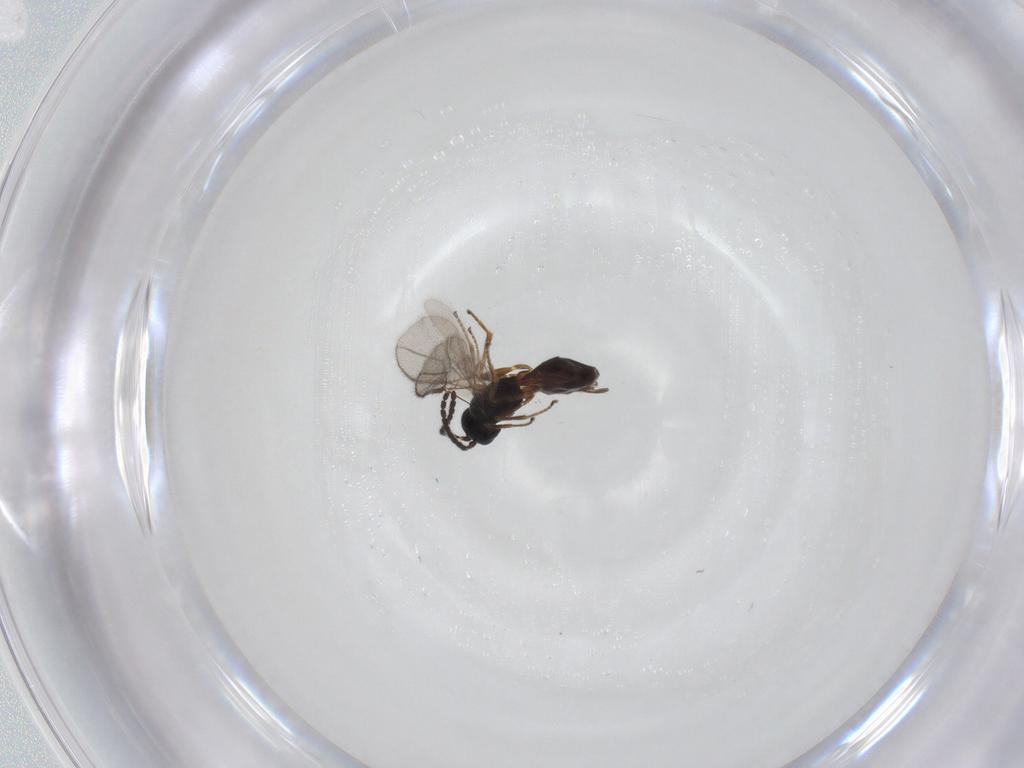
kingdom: Animalia
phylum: Arthropoda
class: Insecta
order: Hymenoptera
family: Braconidae
